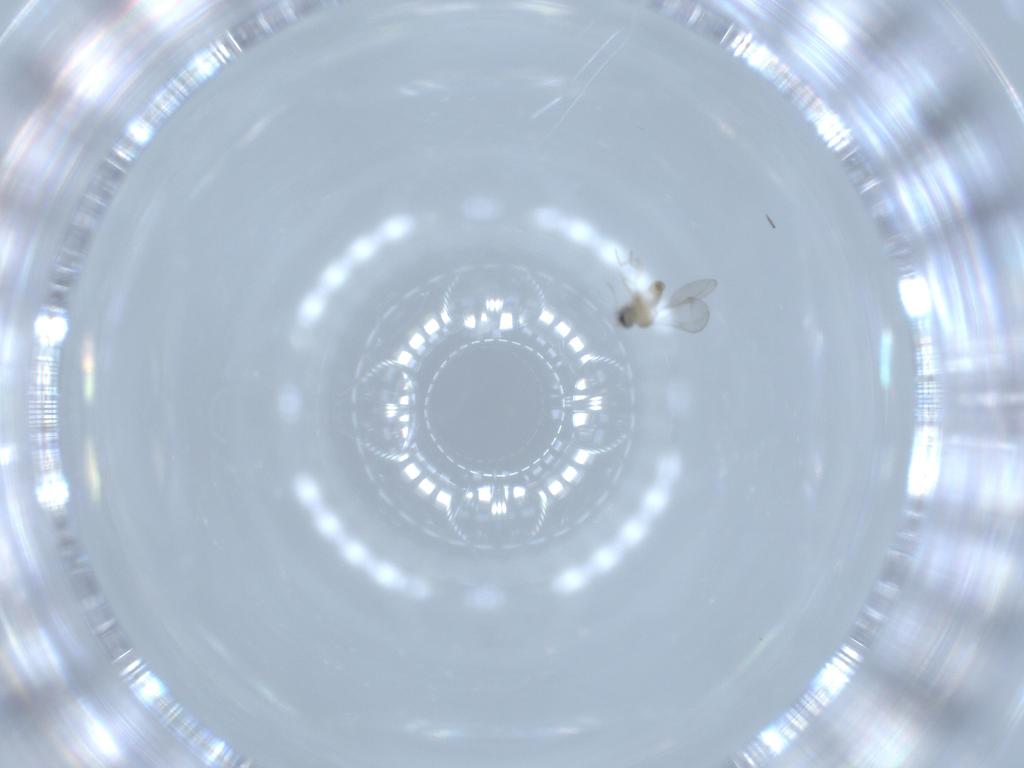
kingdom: Animalia
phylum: Arthropoda
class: Insecta
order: Diptera
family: Cecidomyiidae
